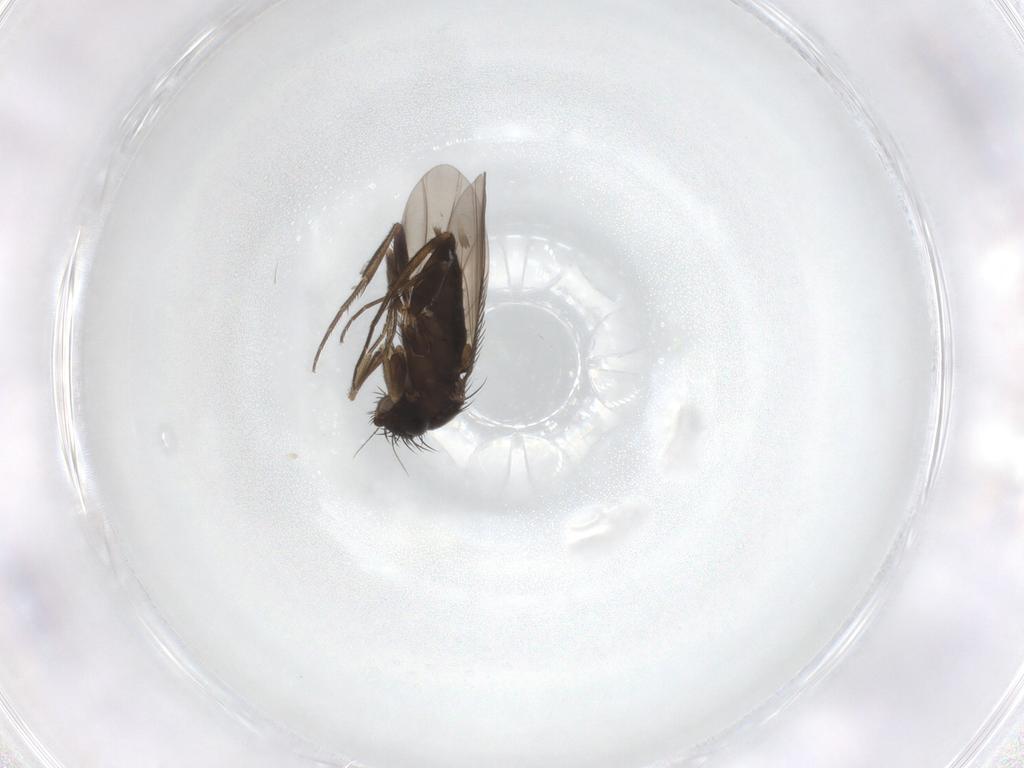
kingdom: Animalia
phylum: Arthropoda
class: Insecta
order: Diptera
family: Phoridae
